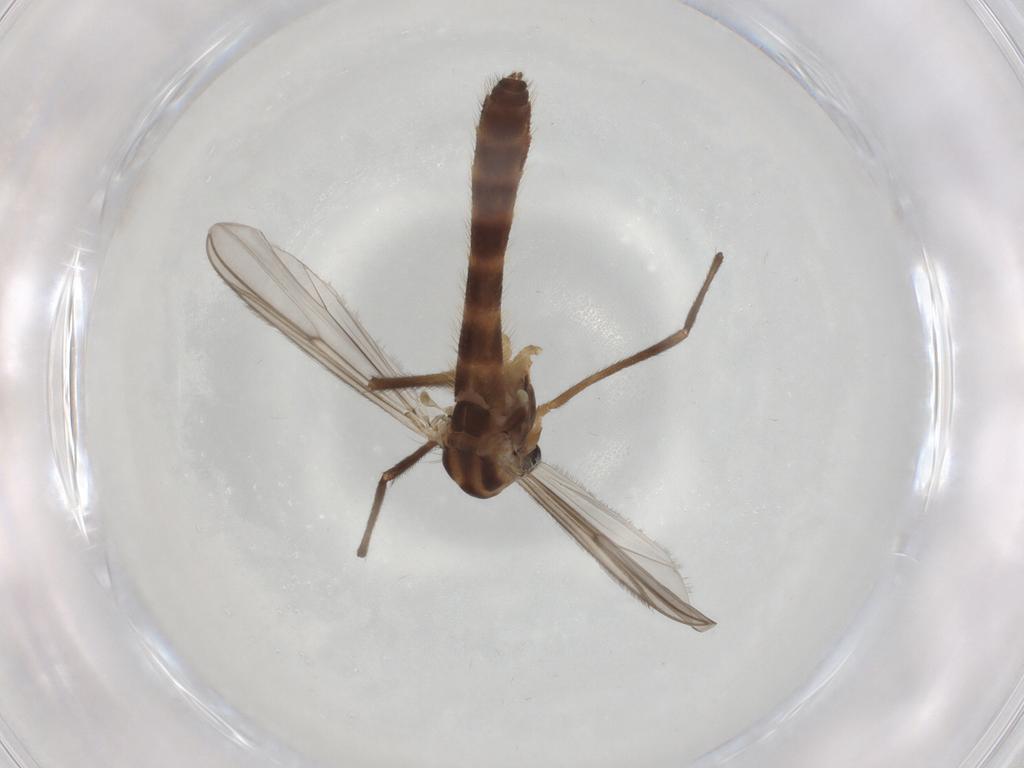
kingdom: Animalia
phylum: Arthropoda
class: Insecta
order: Diptera
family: Chironomidae
